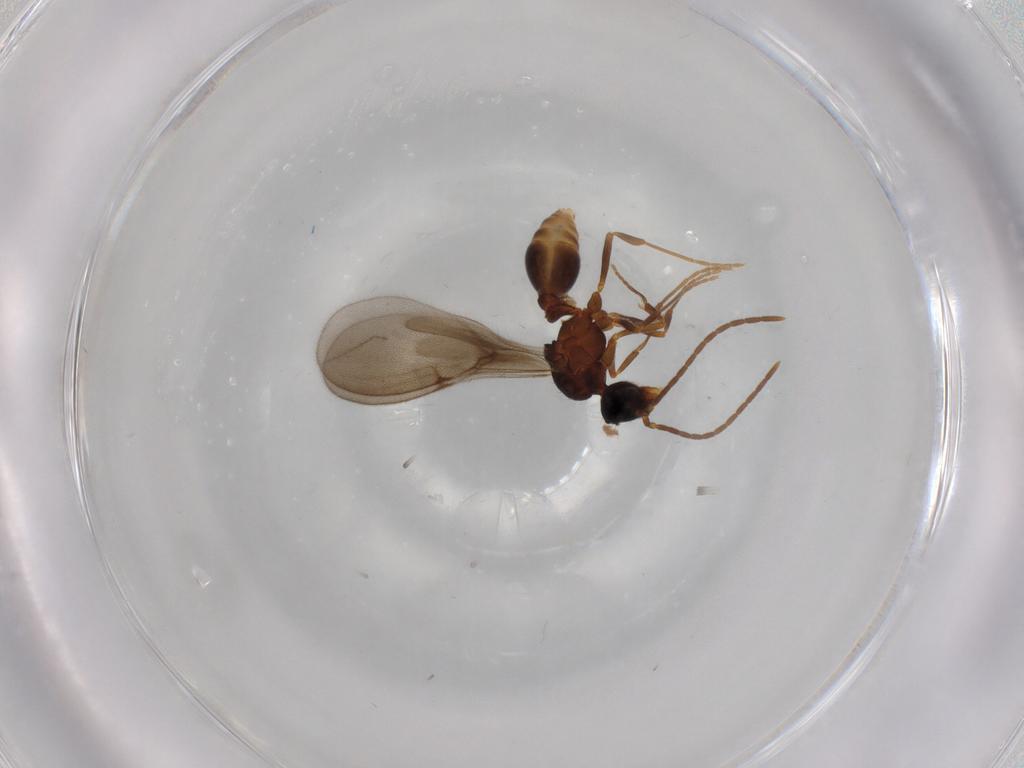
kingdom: Animalia
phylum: Arthropoda
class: Insecta
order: Hymenoptera
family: Formicidae
